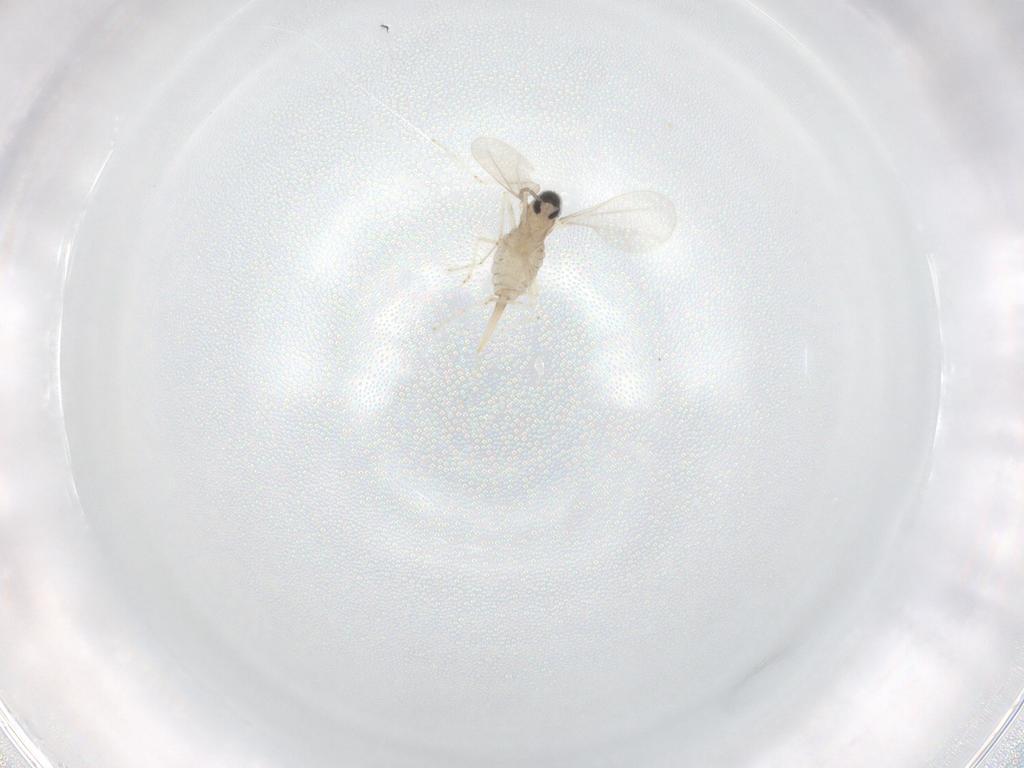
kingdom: Animalia
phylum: Arthropoda
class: Insecta
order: Diptera
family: Cecidomyiidae
